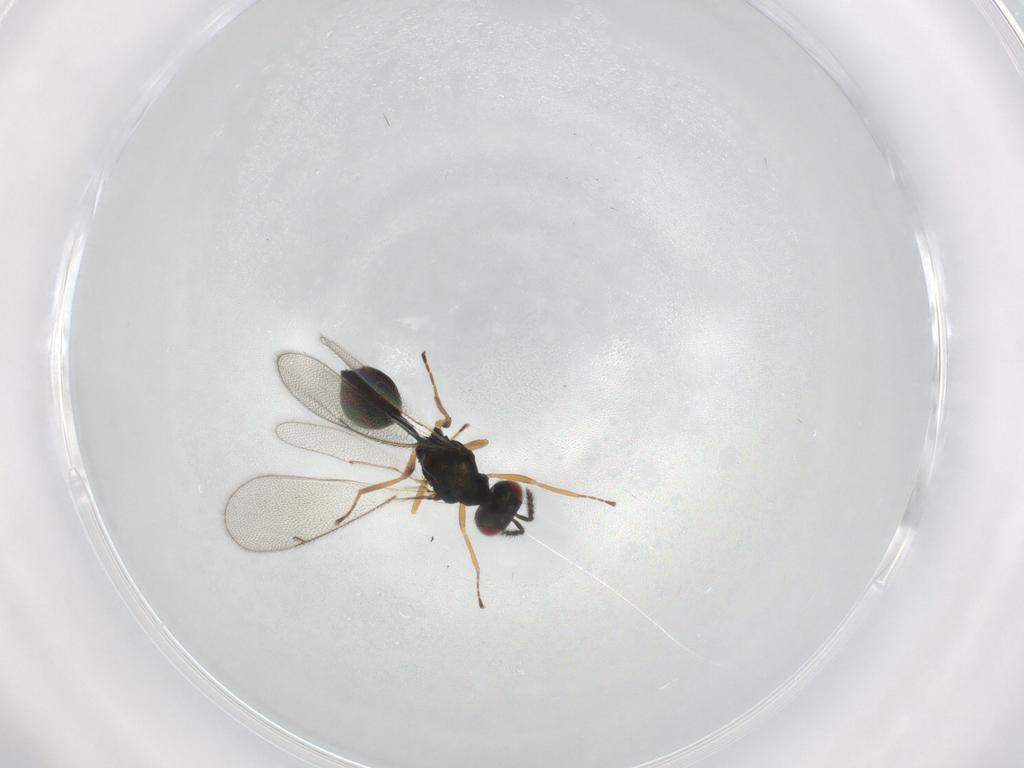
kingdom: Animalia
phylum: Arthropoda
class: Insecta
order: Hymenoptera
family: Eulophidae
